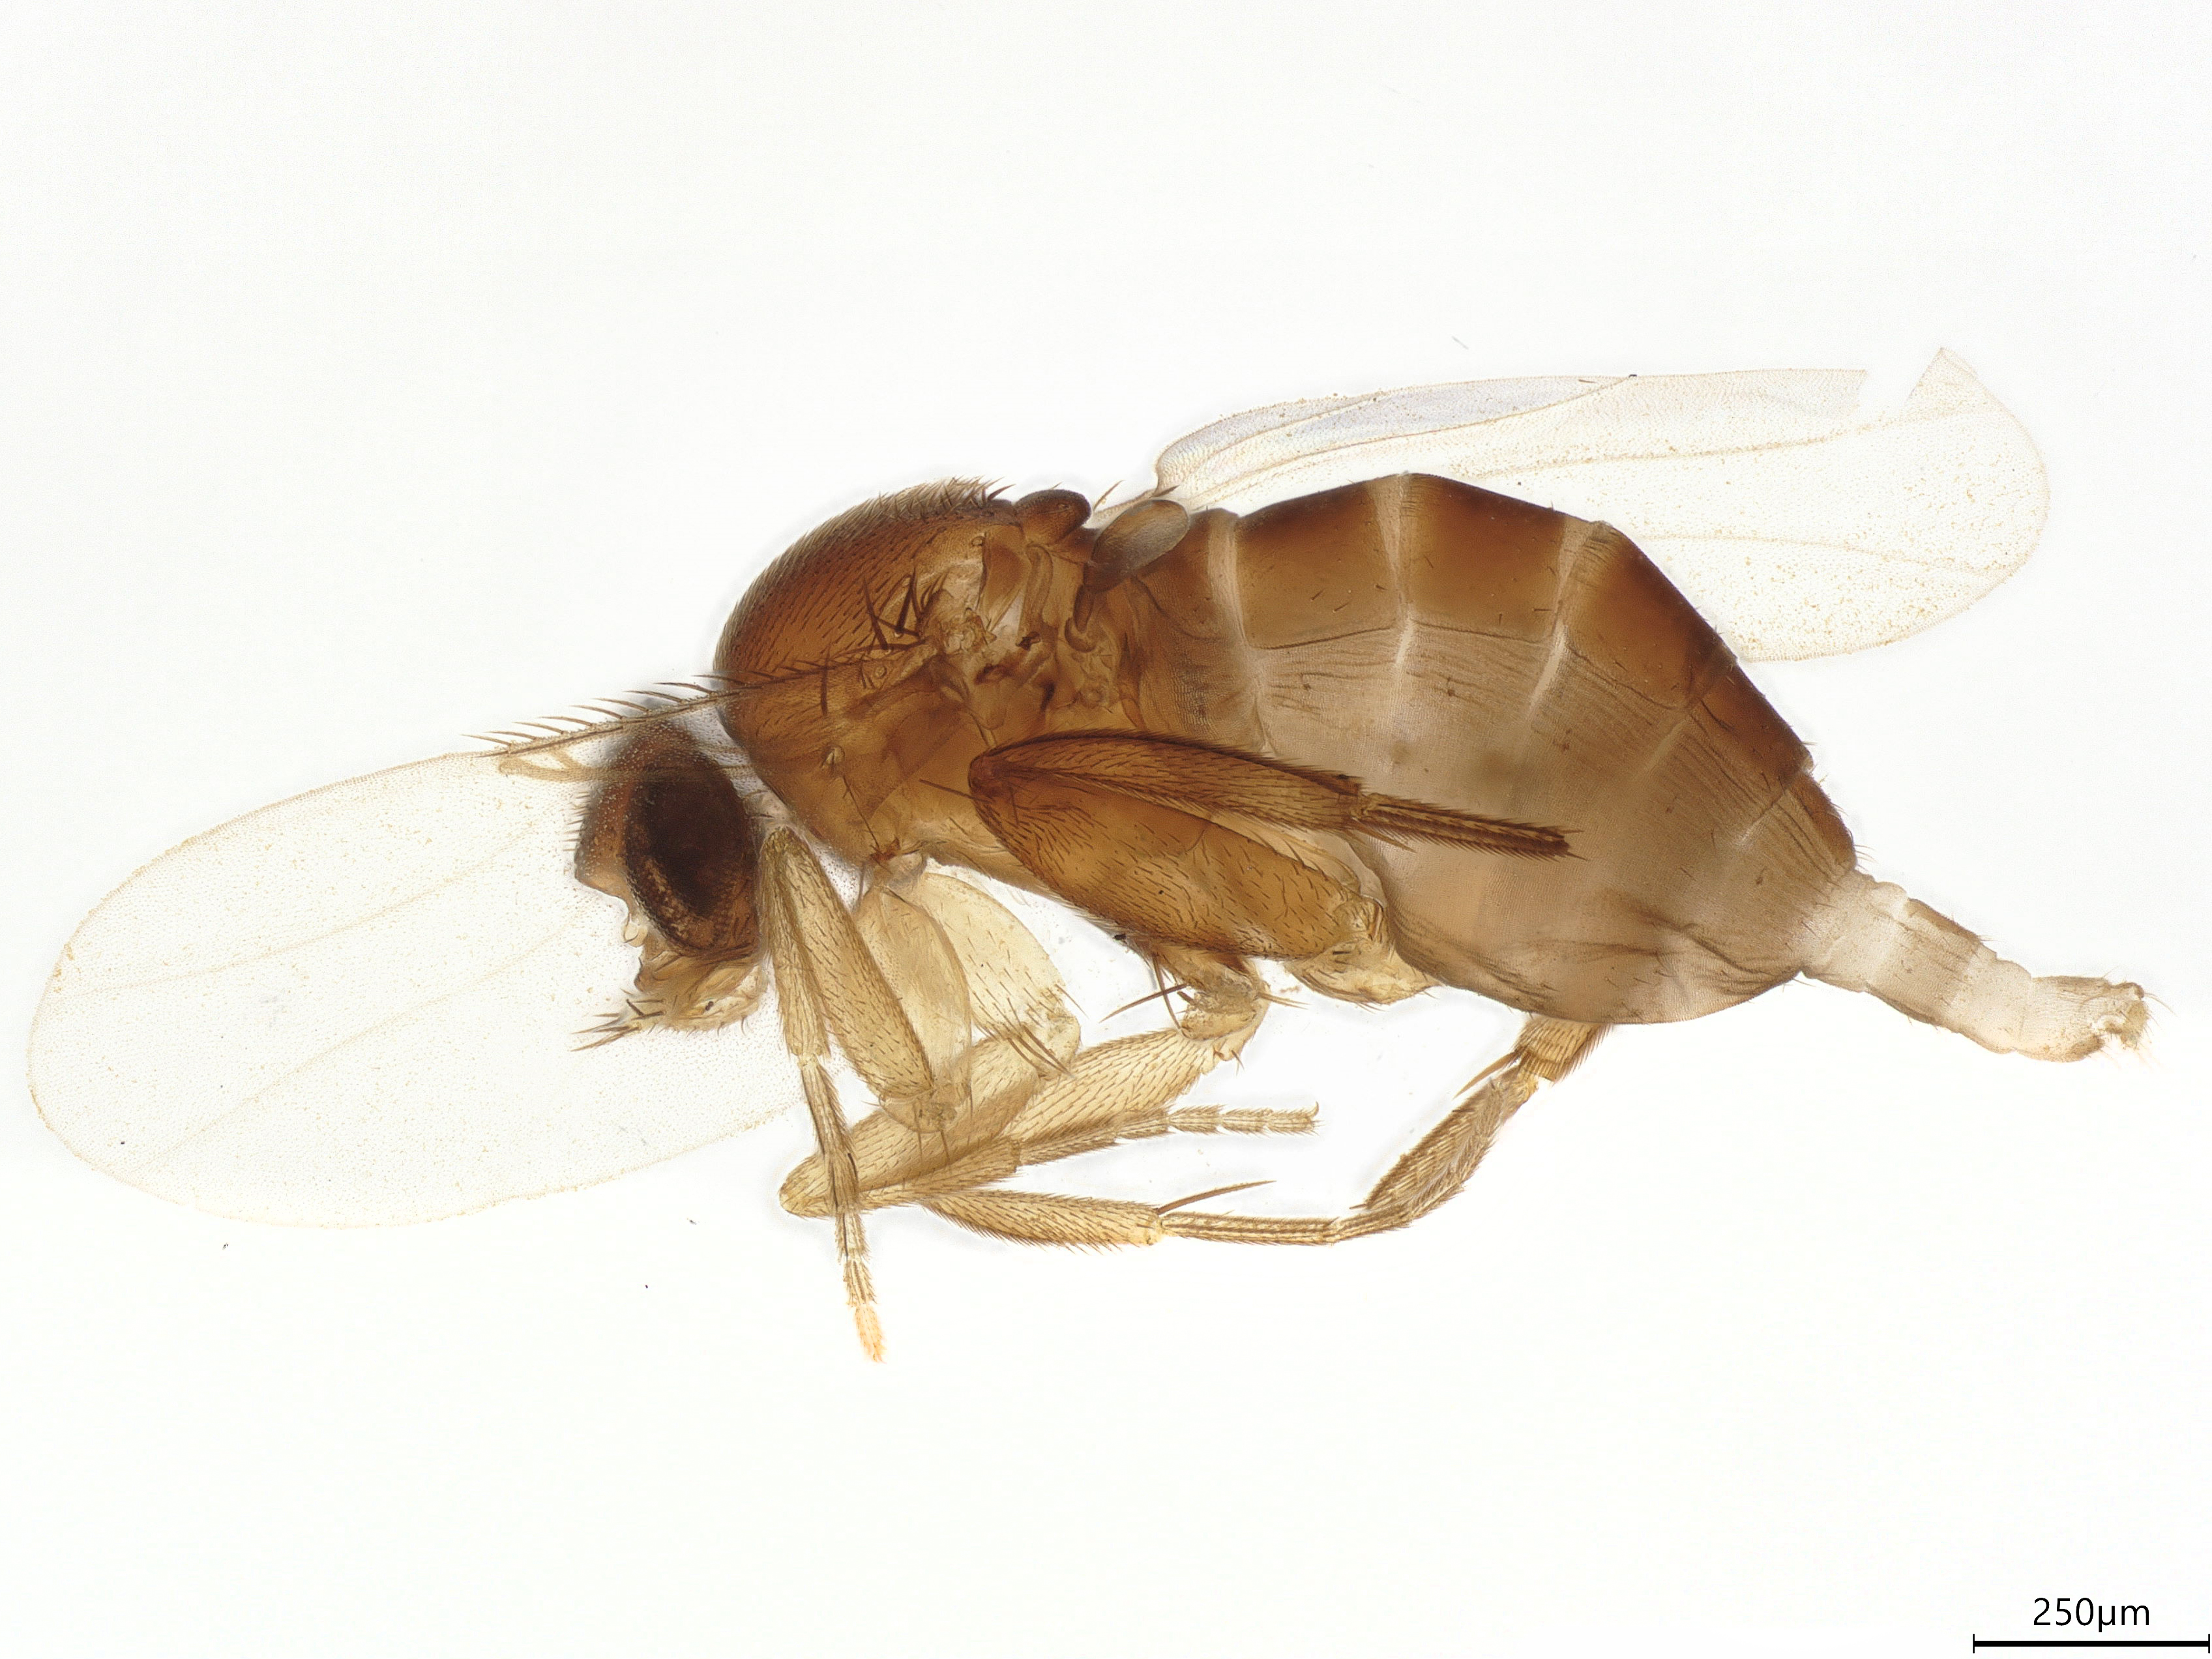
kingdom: Animalia
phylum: Arthropoda
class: Insecta
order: Diptera
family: Phoridae
